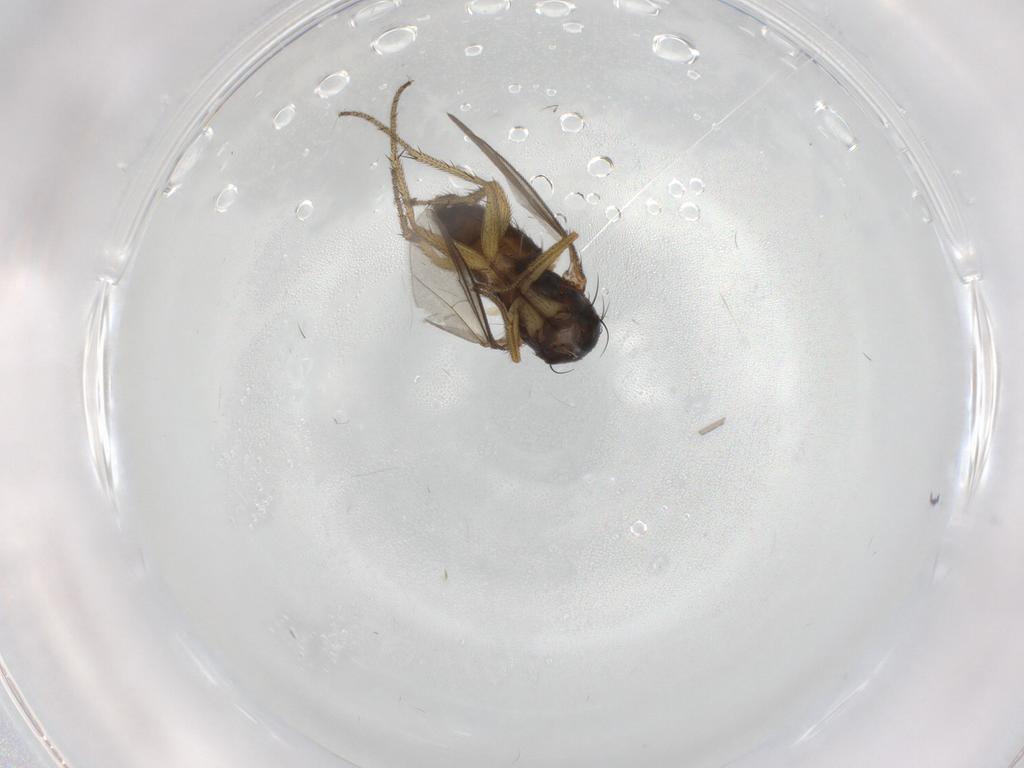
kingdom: Animalia
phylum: Arthropoda
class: Insecta
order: Diptera
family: Dolichopodidae
